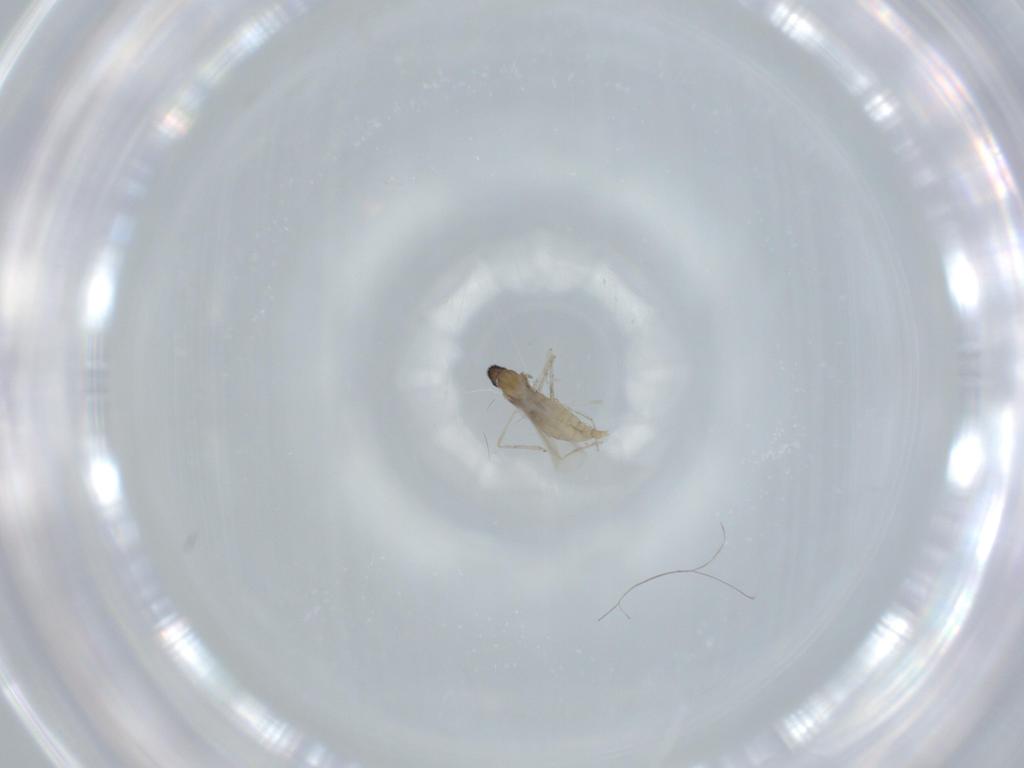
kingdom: Animalia
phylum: Arthropoda
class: Insecta
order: Diptera
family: Cecidomyiidae
